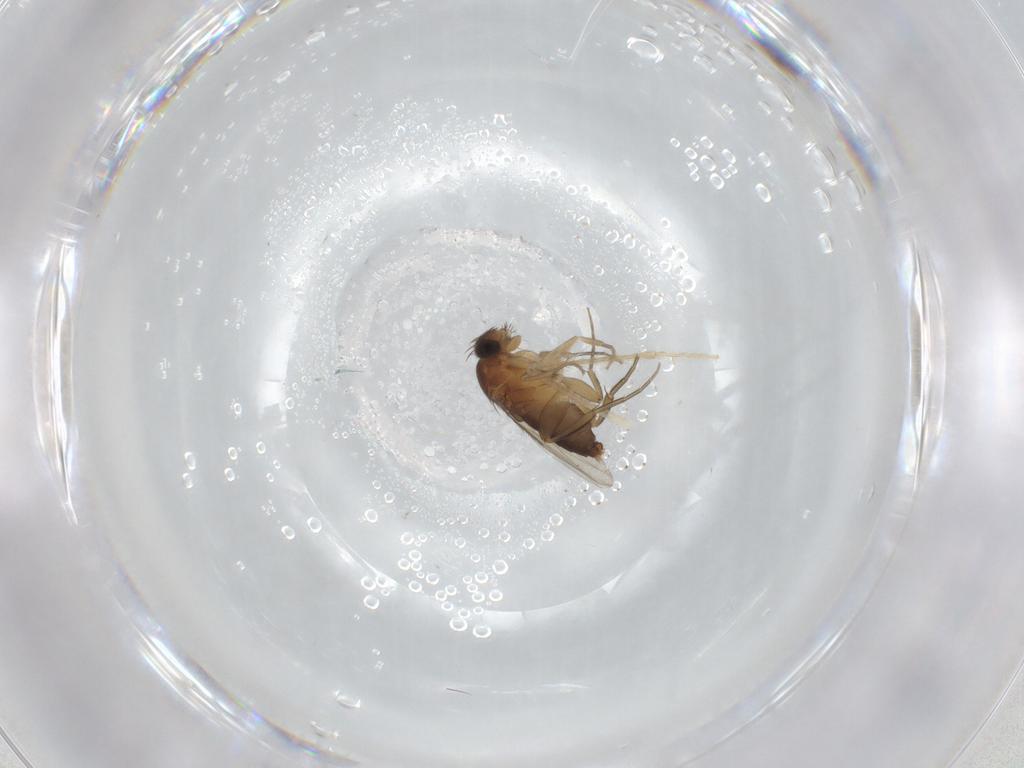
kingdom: Animalia
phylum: Arthropoda
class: Insecta
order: Diptera
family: Phoridae
